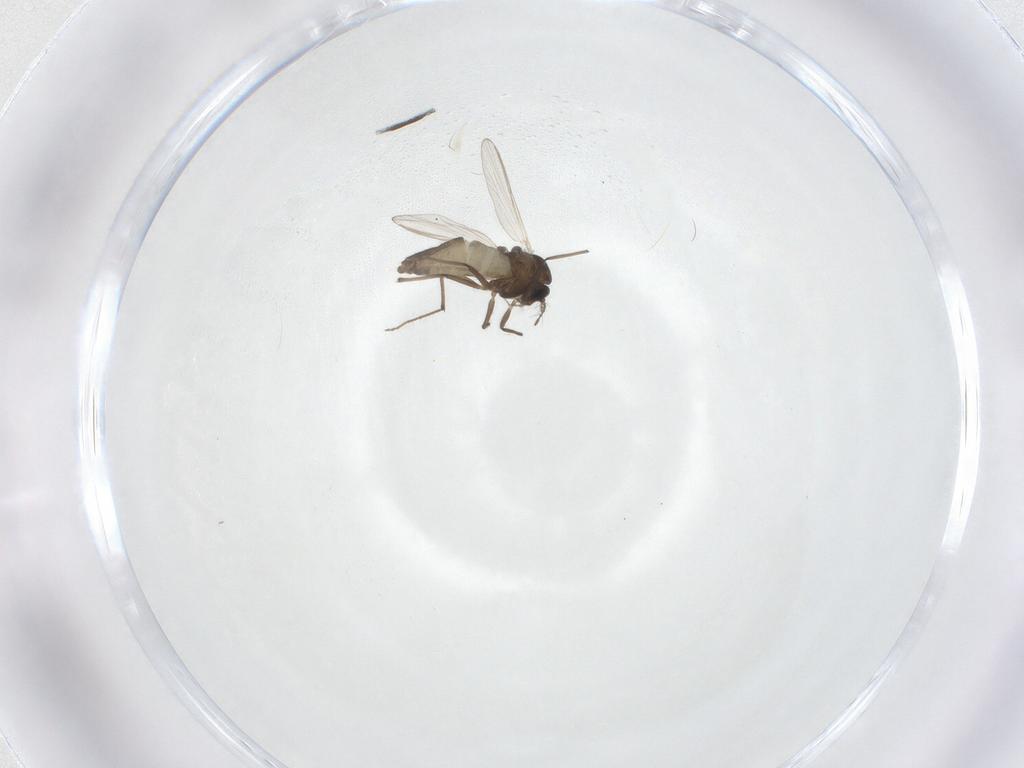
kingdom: Animalia
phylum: Arthropoda
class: Insecta
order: Diptera
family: Chironomidae
